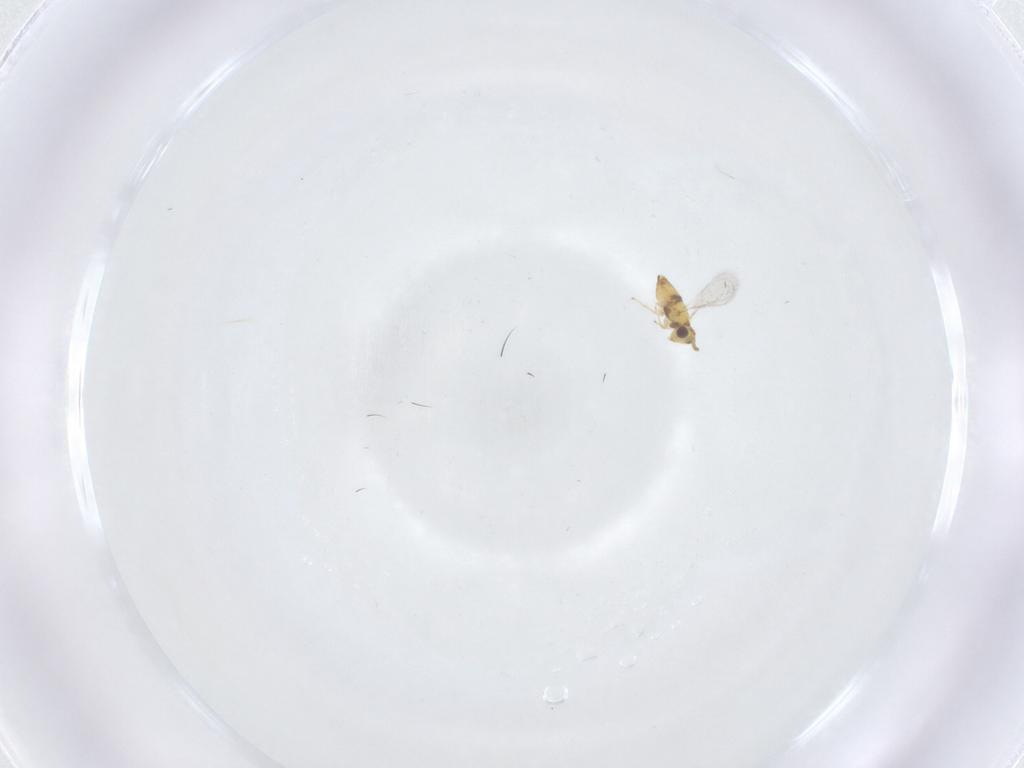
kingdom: Animalia
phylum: Arthropoda
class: Insecta
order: Hymenoptera
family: Aphelinidae
